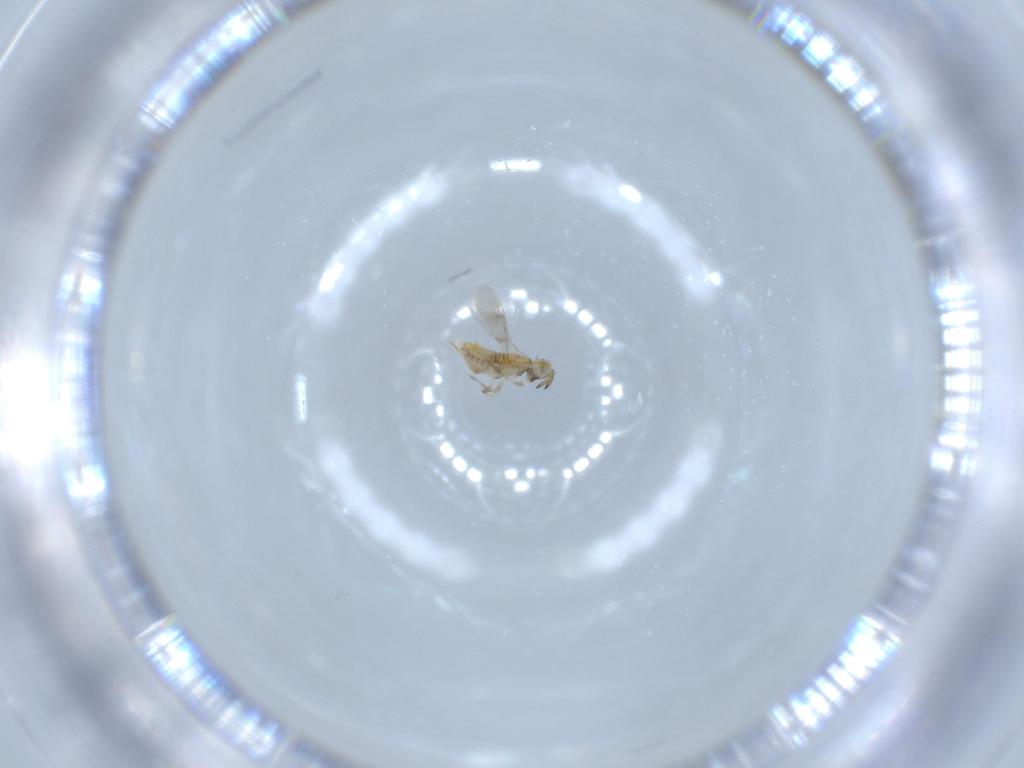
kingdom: Animalia
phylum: Arthropoda
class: Insecta
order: Hymenoptera
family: Aphelinidae
